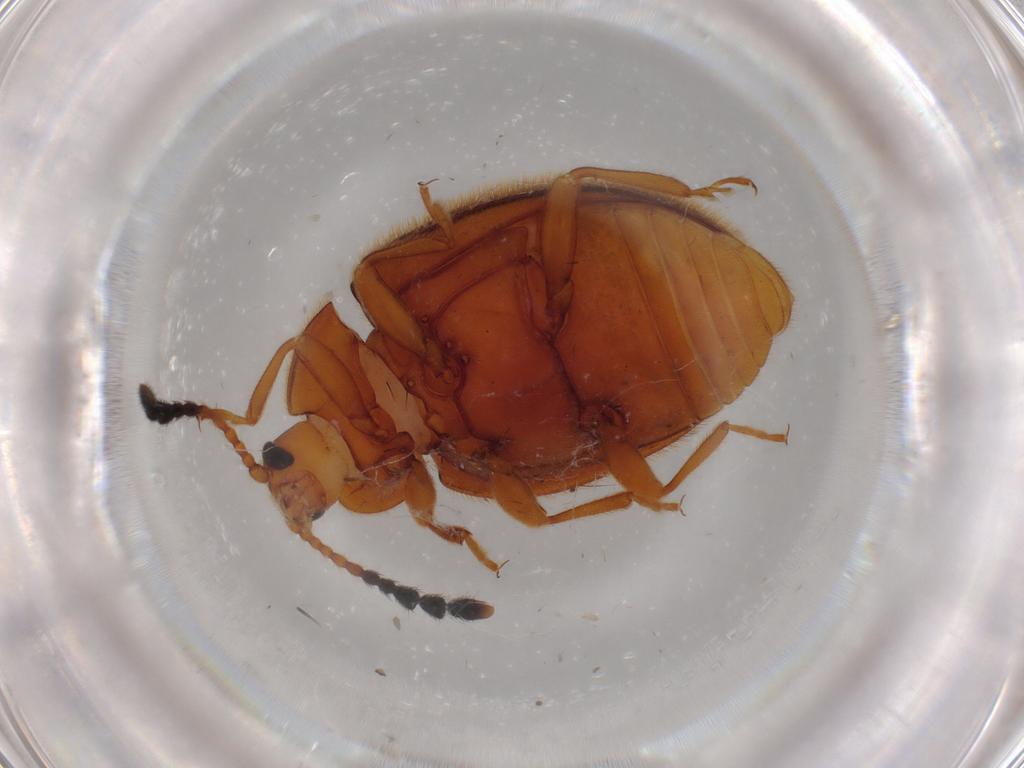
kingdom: Animalia
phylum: Arthropoda
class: Insecta
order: Coleoptera
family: Endomychidae
